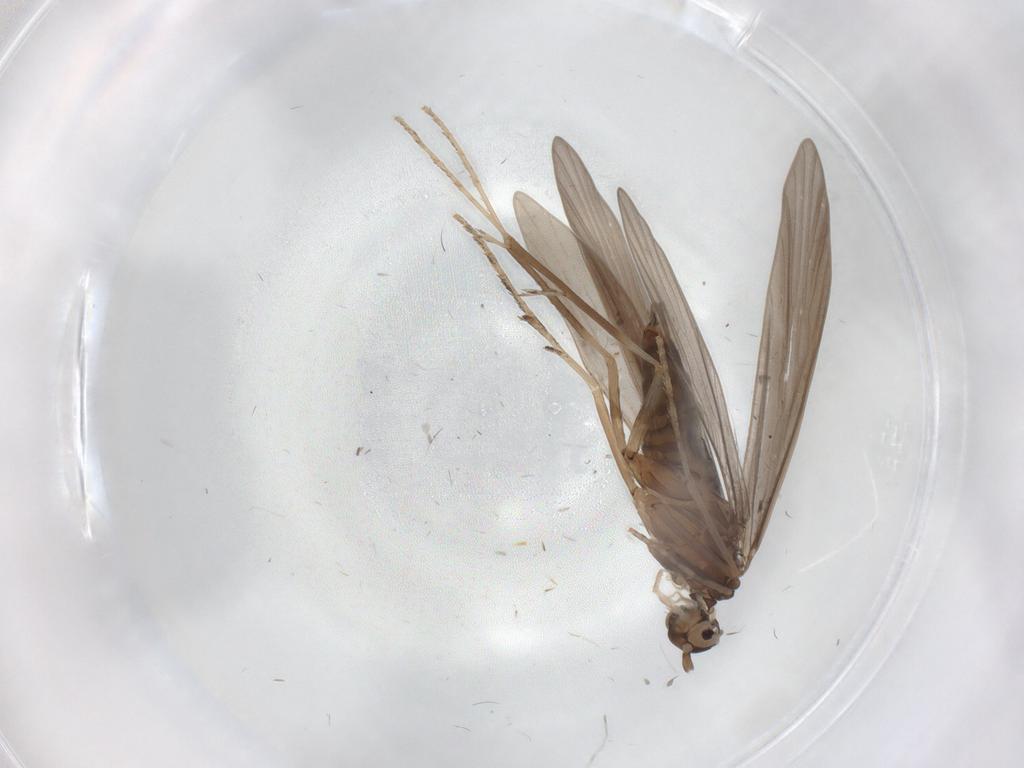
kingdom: Animalia
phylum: Arthropoda
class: Insecta
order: Trichoptera
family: Xiphocentronidae
